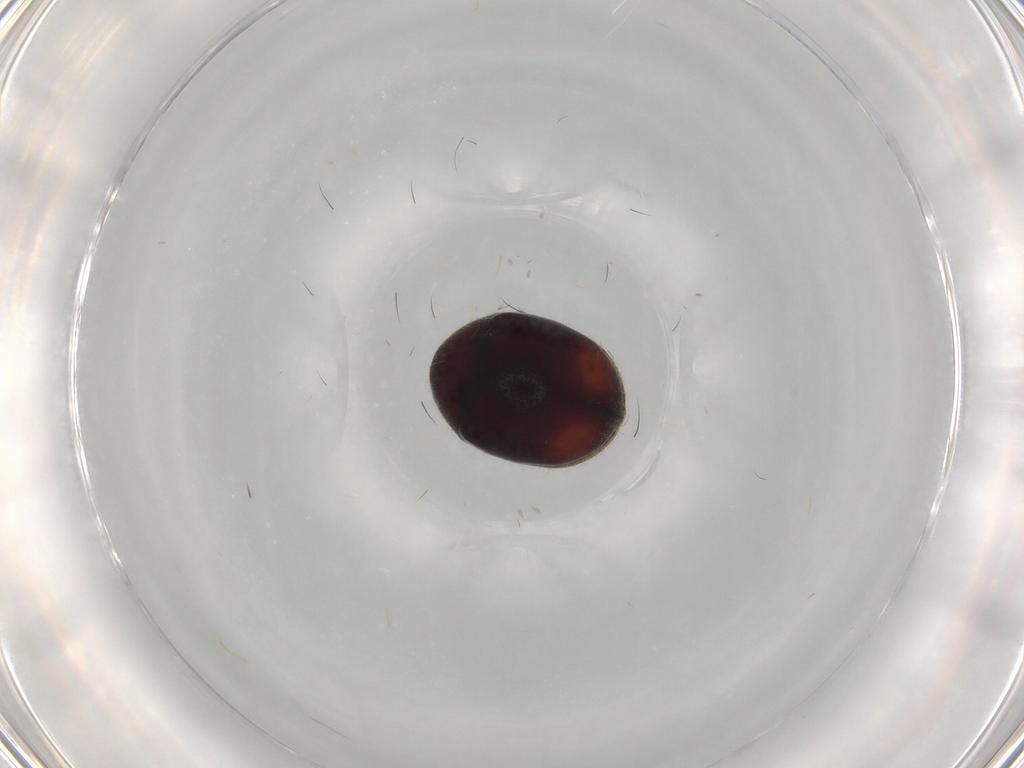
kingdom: Animalia
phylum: Arthropoda
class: Insecta
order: Coleoptera
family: Ptinidae
